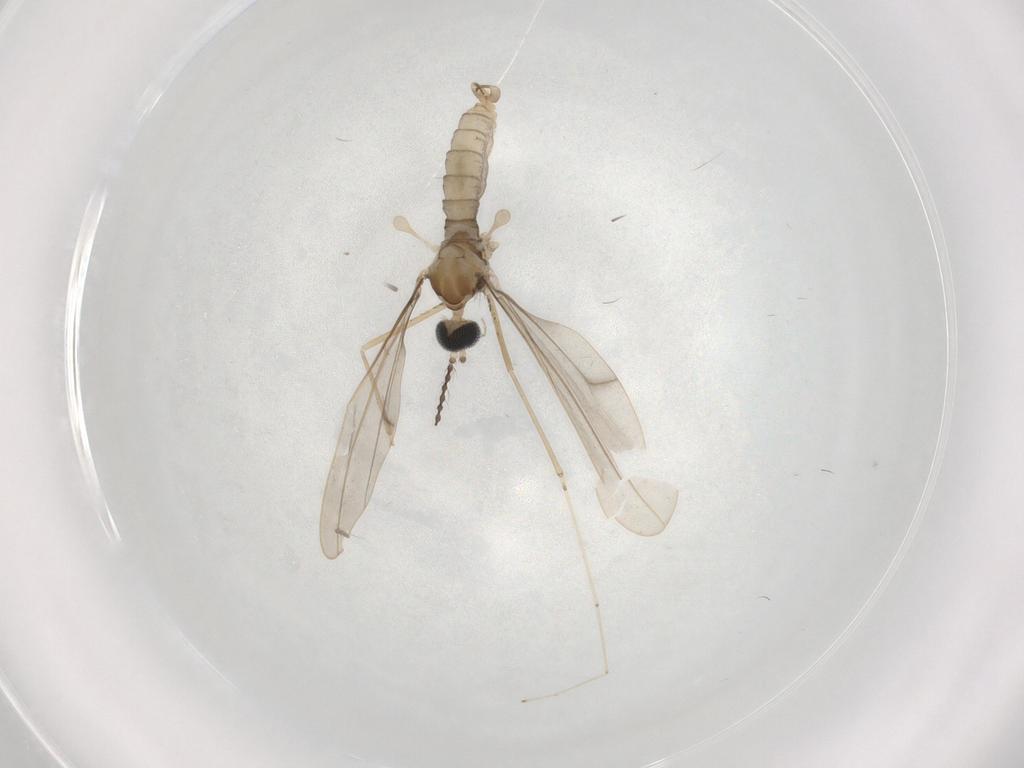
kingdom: Animalia
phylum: Arthropoda
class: Insecta
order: Diptera
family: Cecidomyiidae
